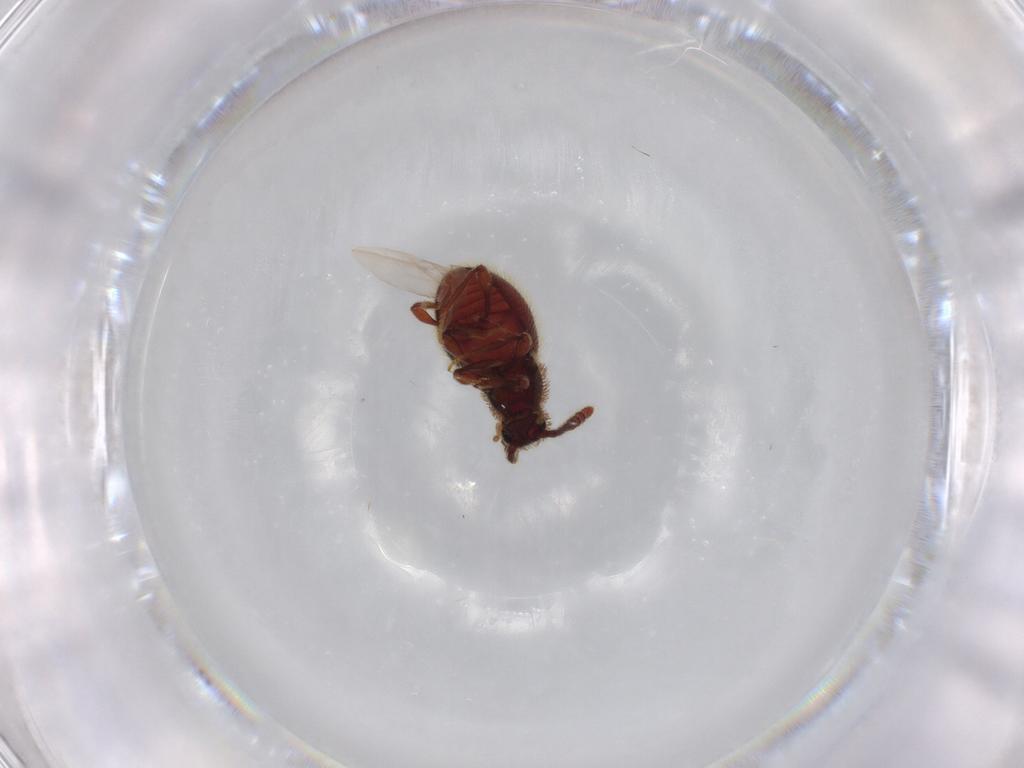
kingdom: Animalia
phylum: Arthropoda
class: Insecta
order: Coleoptera
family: Staphylinidae
